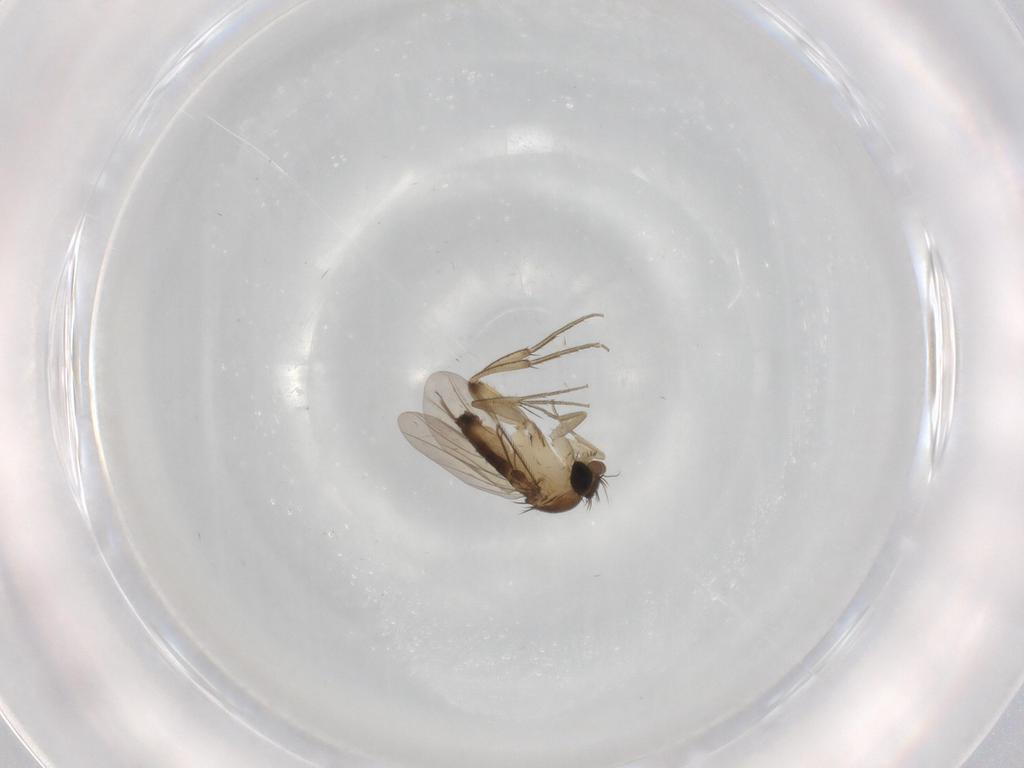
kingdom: Animalia
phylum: Arthropoda
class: Insecta
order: Diptera
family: Phoridae
